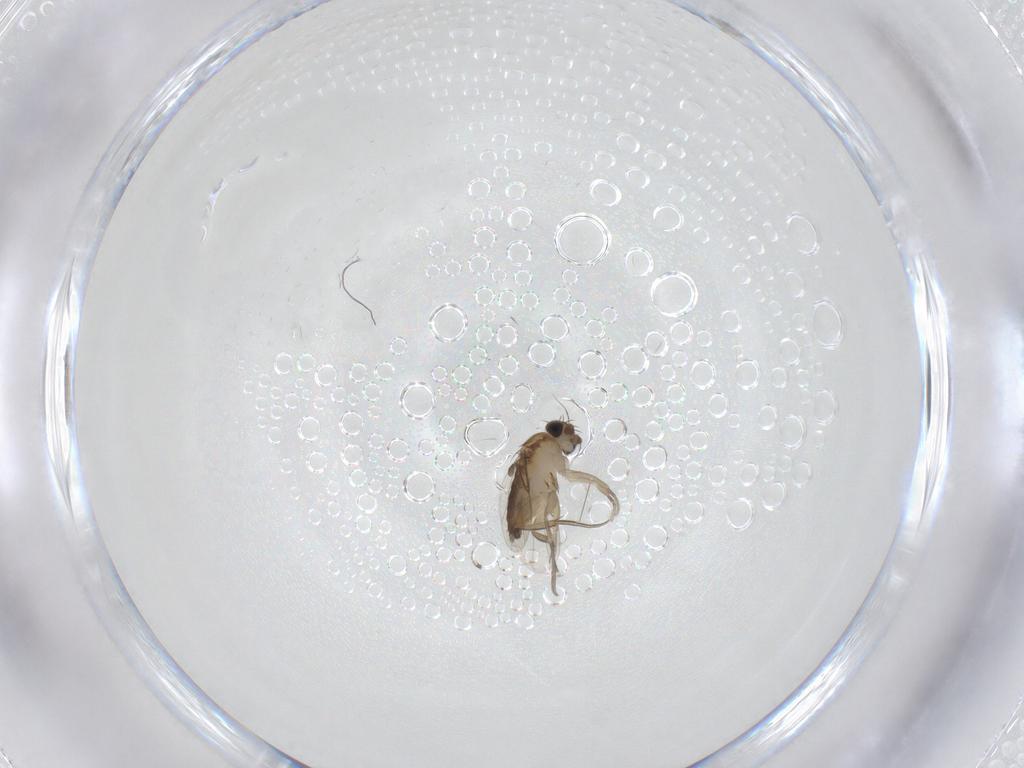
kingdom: Animalia
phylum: Arthropoda
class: Insecta
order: Diptera
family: Phoridae
